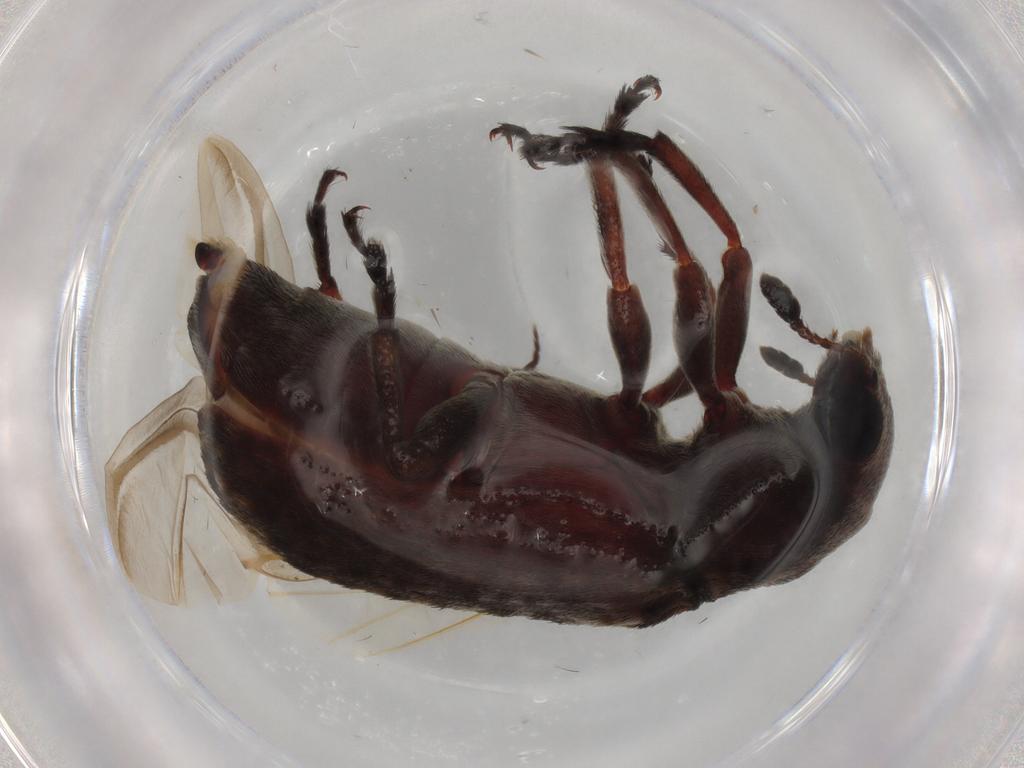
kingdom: Animalia
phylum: Arthropoda
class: Insecta
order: Coleoptera
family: Anthribidae
